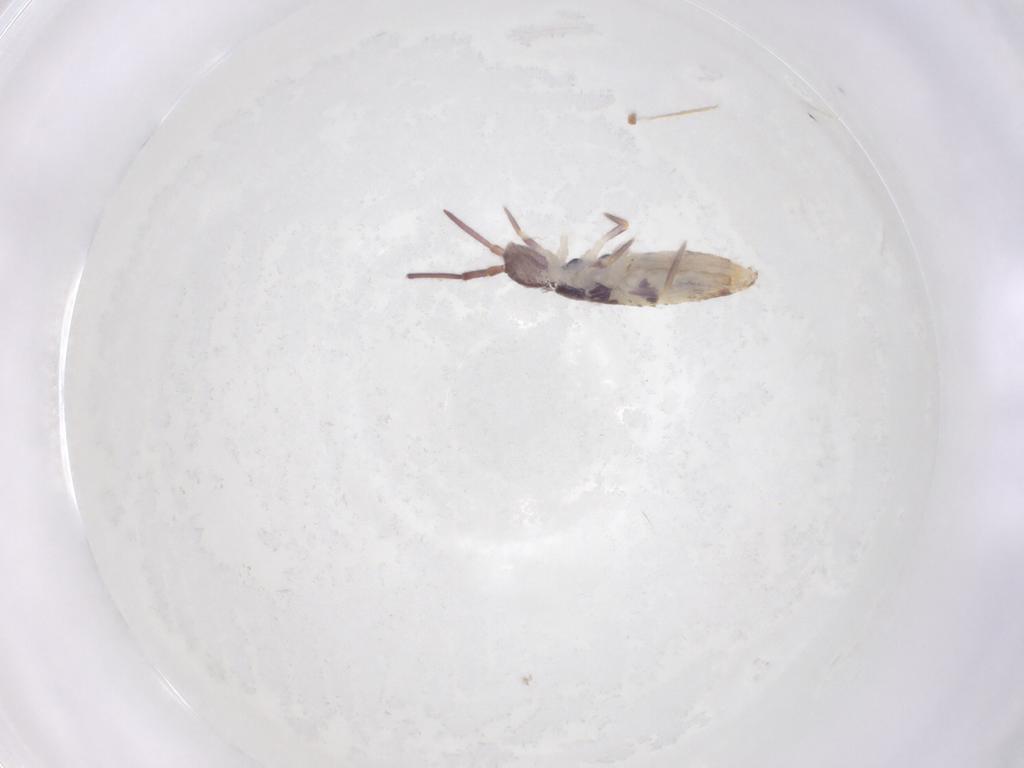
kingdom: Animalia
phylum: Arthropoda
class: Collembola
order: Entomobryomorpha
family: Entomobryidae
